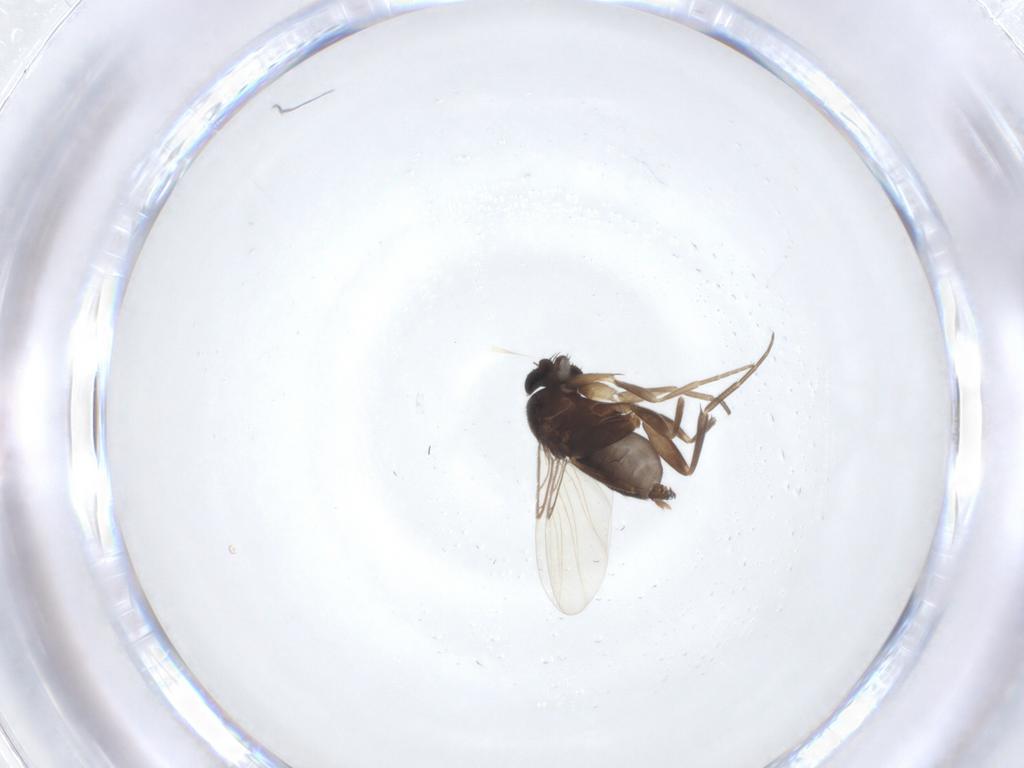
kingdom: Animalia
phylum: Arthropoda
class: Insecta
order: Diptera
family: Phoridae
